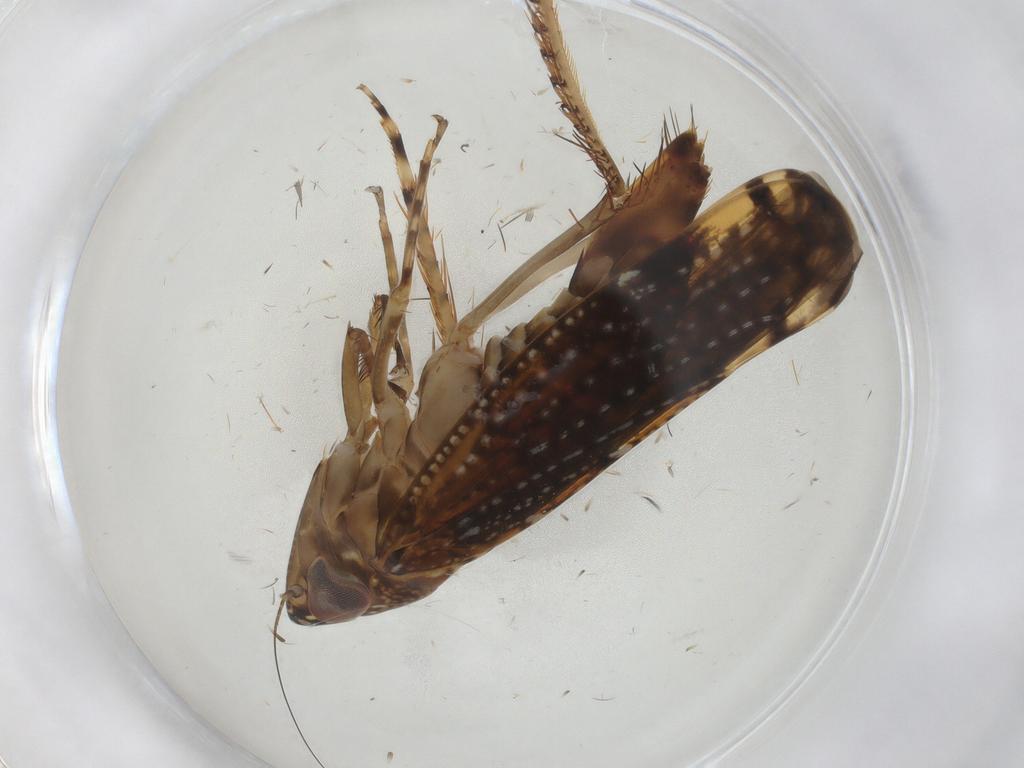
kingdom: Animalia
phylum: Arthropoda
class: Insecta
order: Hemiptera
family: Cicadellidae
